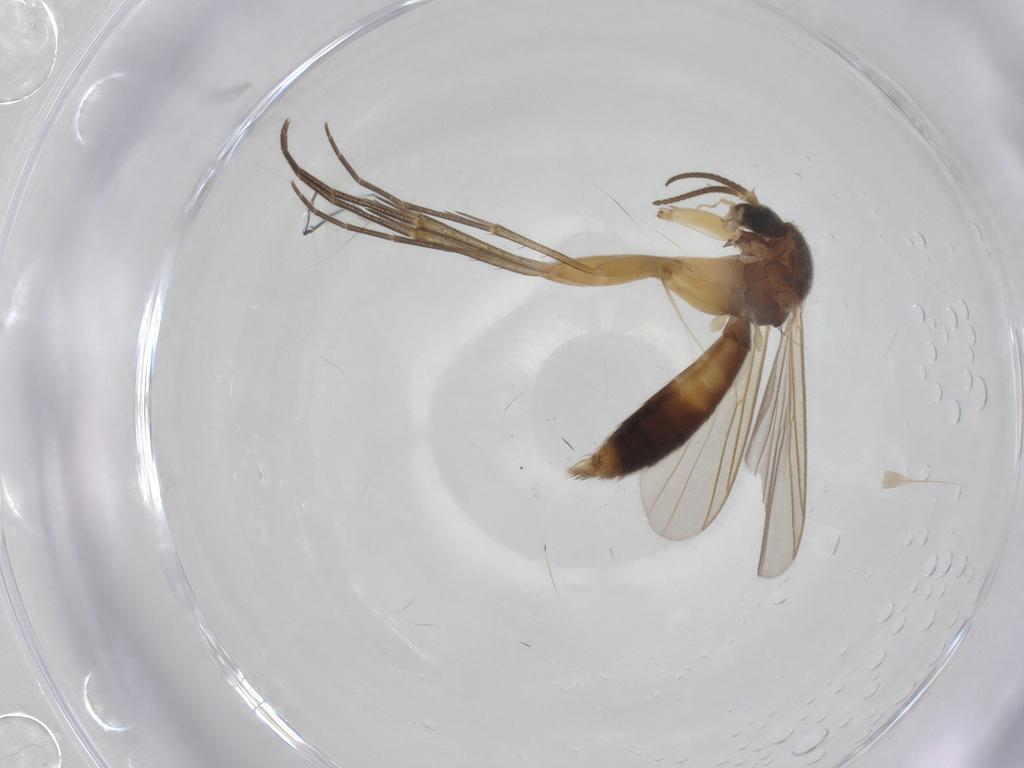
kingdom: Animalia
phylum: Arthropoda
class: Insecta
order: Diptera
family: Mycetophilidae
